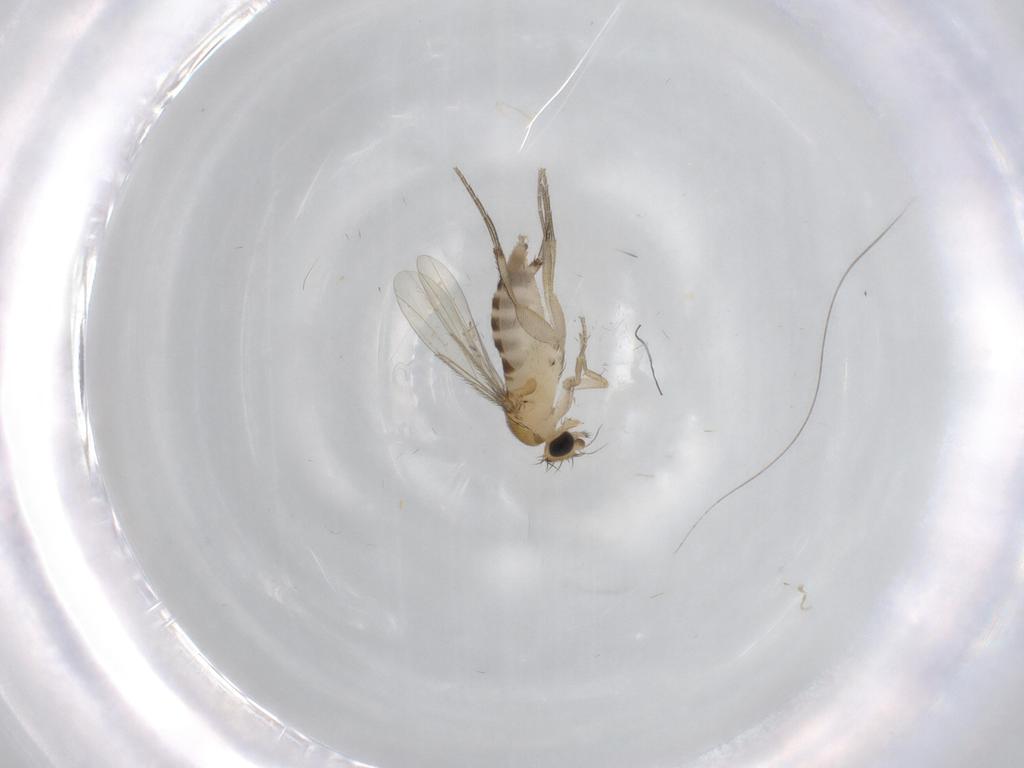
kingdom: Animalia
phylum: Arthropoda
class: Insecta
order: Diptera
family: Phoridae
